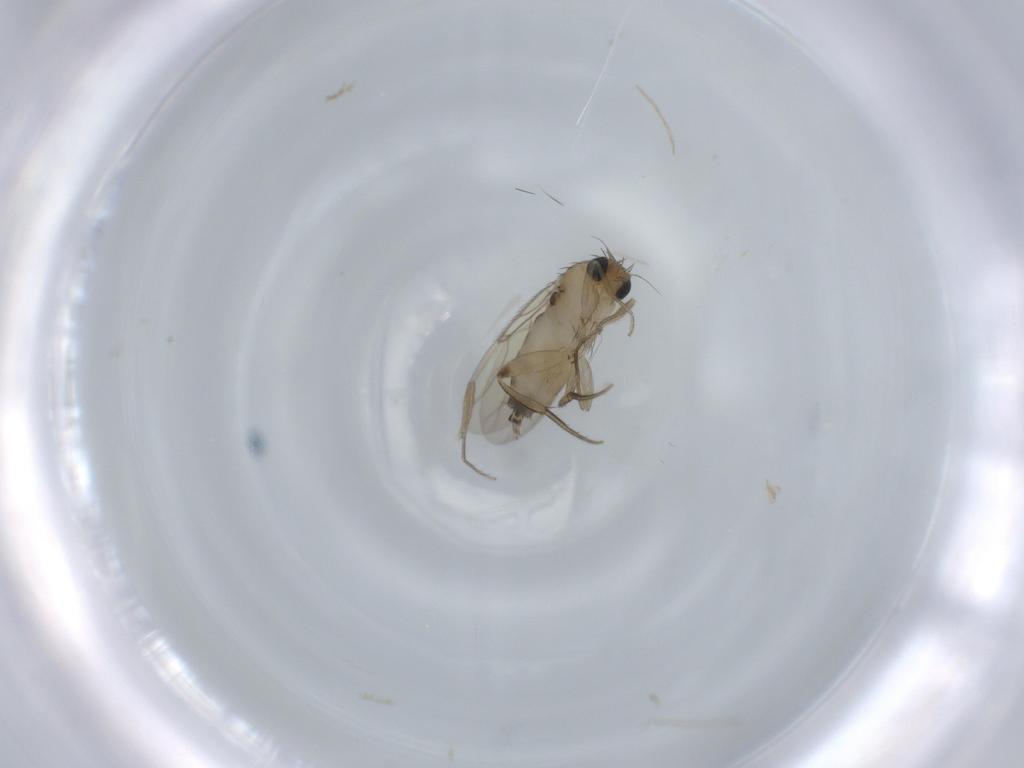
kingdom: Animalia
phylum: Arthropoda
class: Insecta
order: Diptera
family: Phoridae
